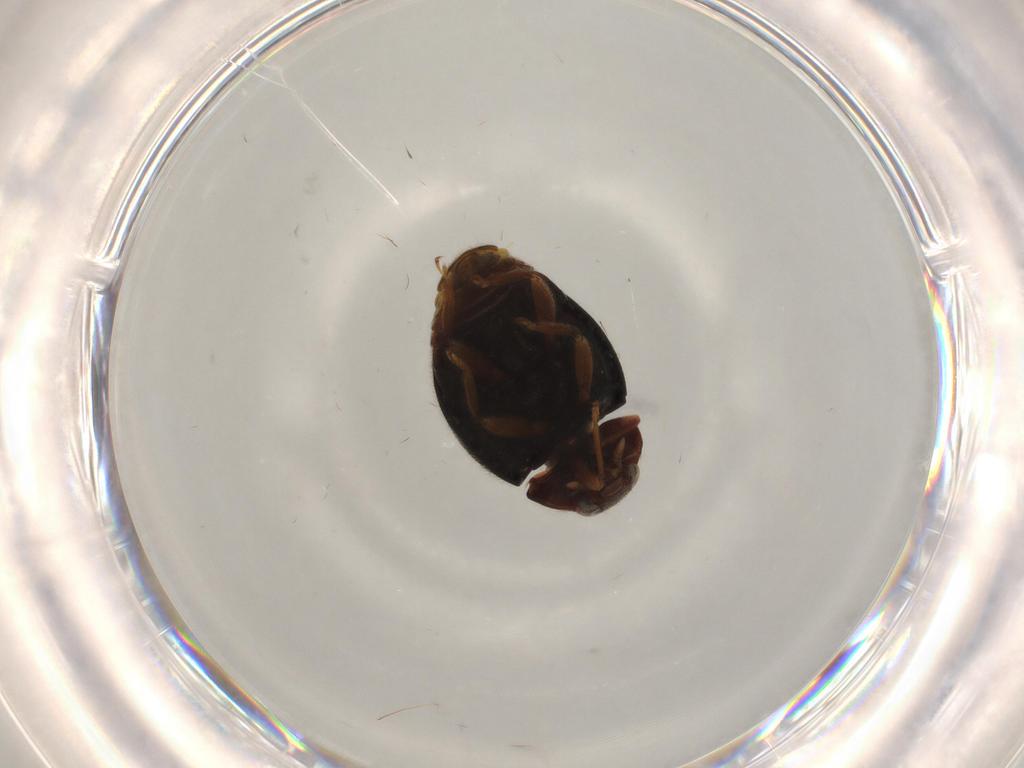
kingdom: Animalia
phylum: Arthropoda
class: Insecta
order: Coleoptera
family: Coccinellidae
